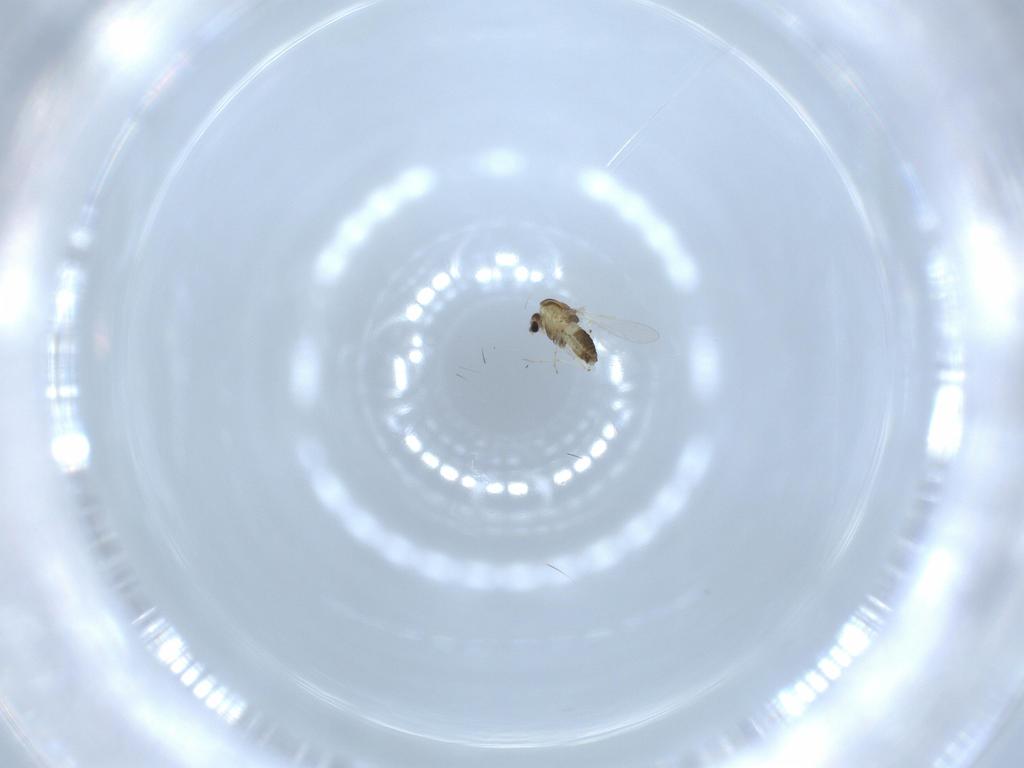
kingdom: Animalia
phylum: Arthropoda
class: Insecta
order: Diptera
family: Chironomidae
